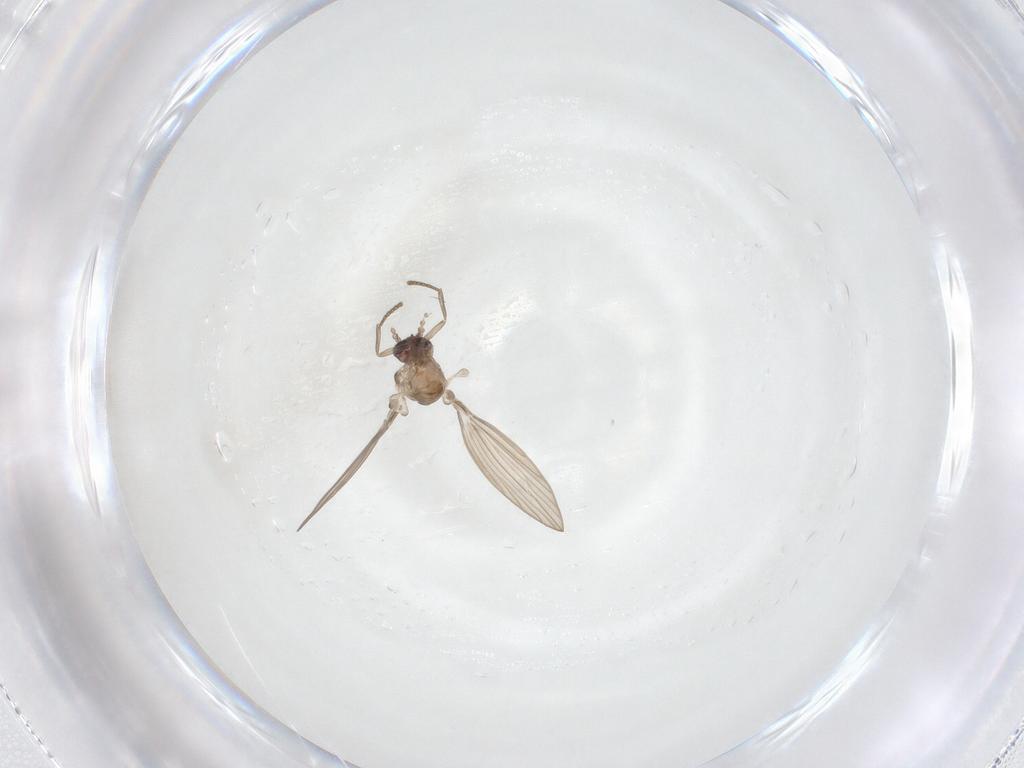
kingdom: Animalia
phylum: Arthropoda
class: Insecta
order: Diptera
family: Psychodidae
